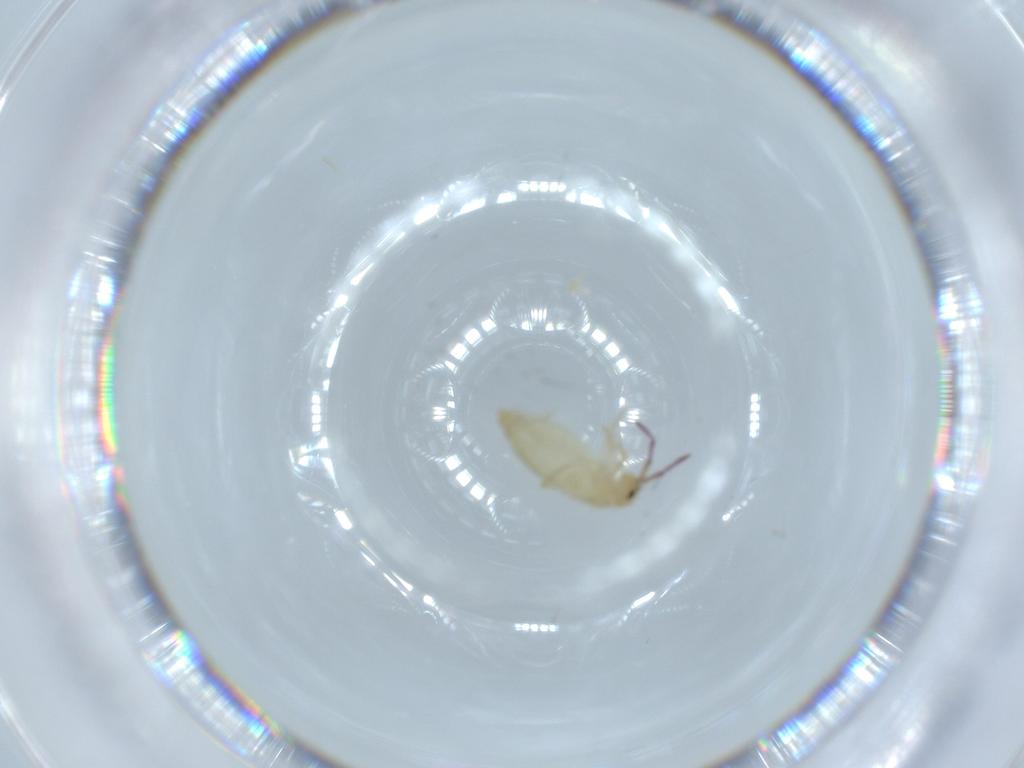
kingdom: Animalia
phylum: Arthropoda
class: Collembola
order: Entomobryomorpha
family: Entomobryidae
